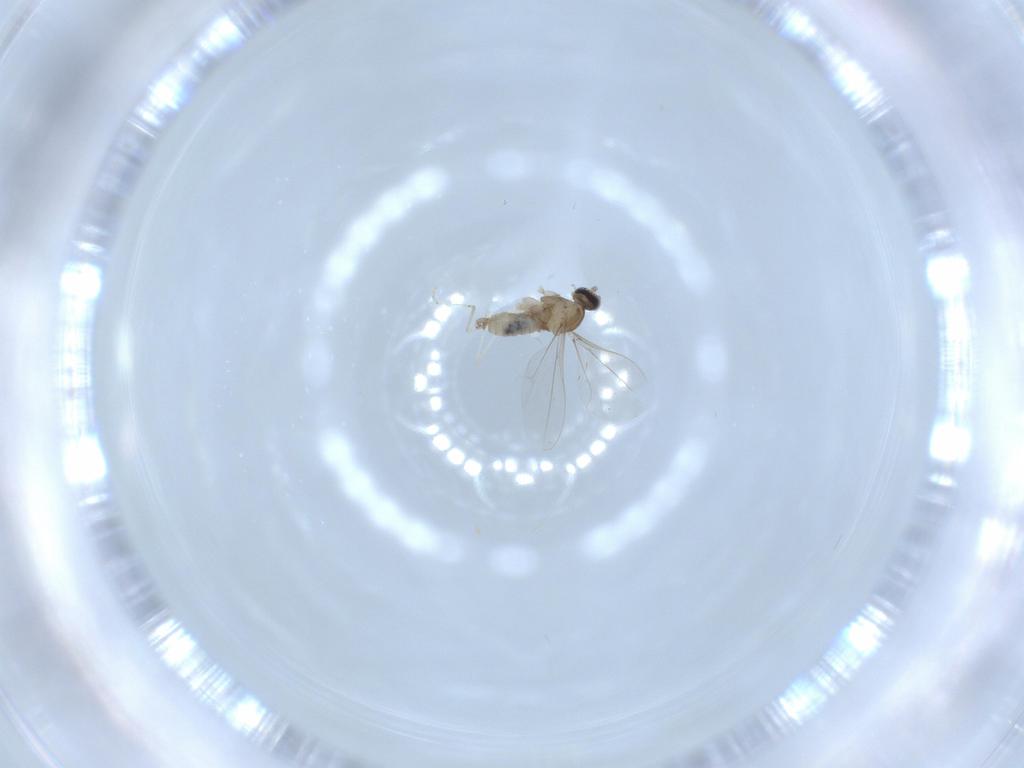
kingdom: Animalia
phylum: Arthropoda
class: Insecta
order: Diptera
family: Cecidomyiidae
